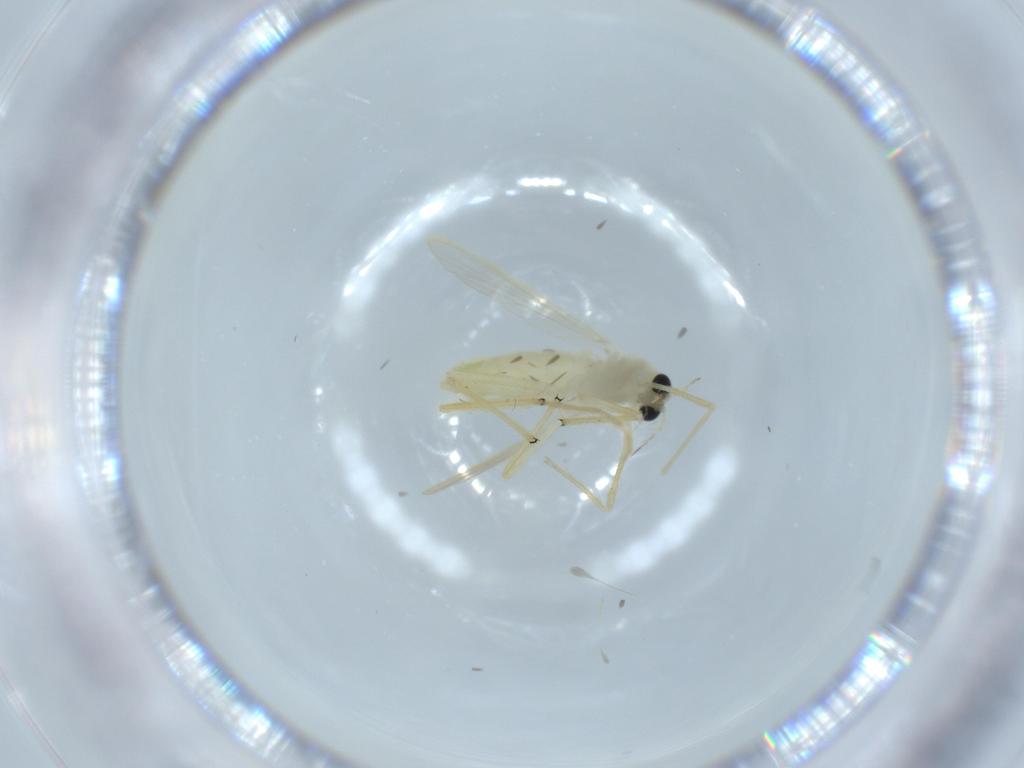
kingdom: Animalia
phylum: Arthropoda
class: Insecta
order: Diptera
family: Chironomidae
